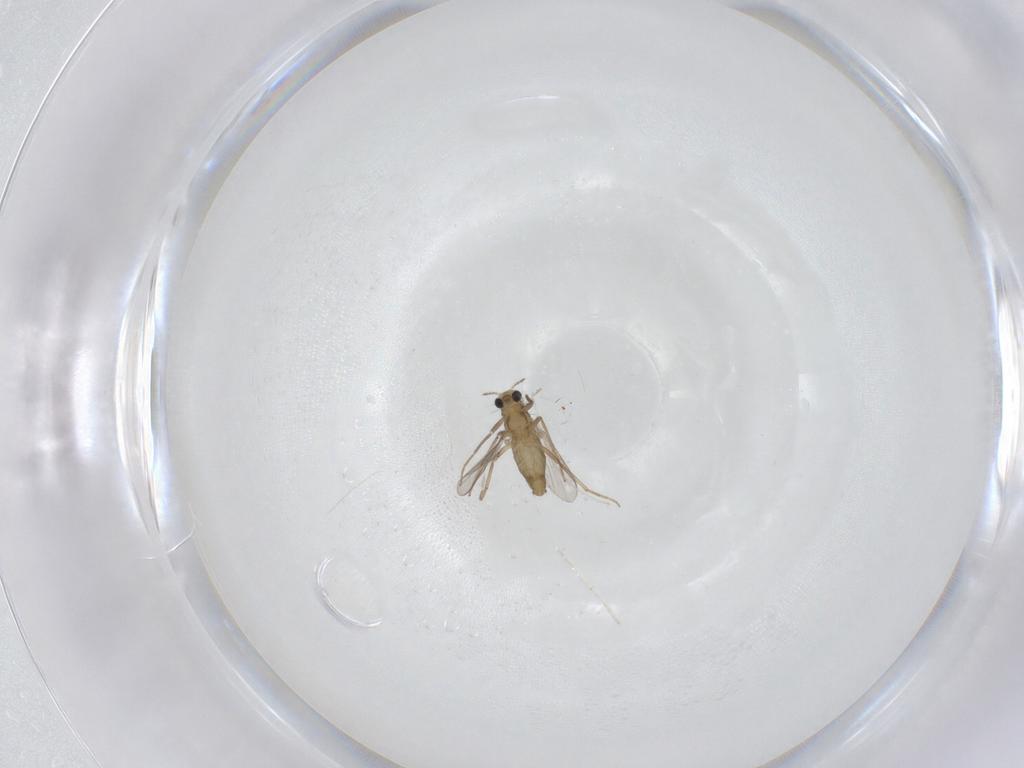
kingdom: Animalia
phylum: Arthropoda
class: Insecta
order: Diptera
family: Chironomidae
